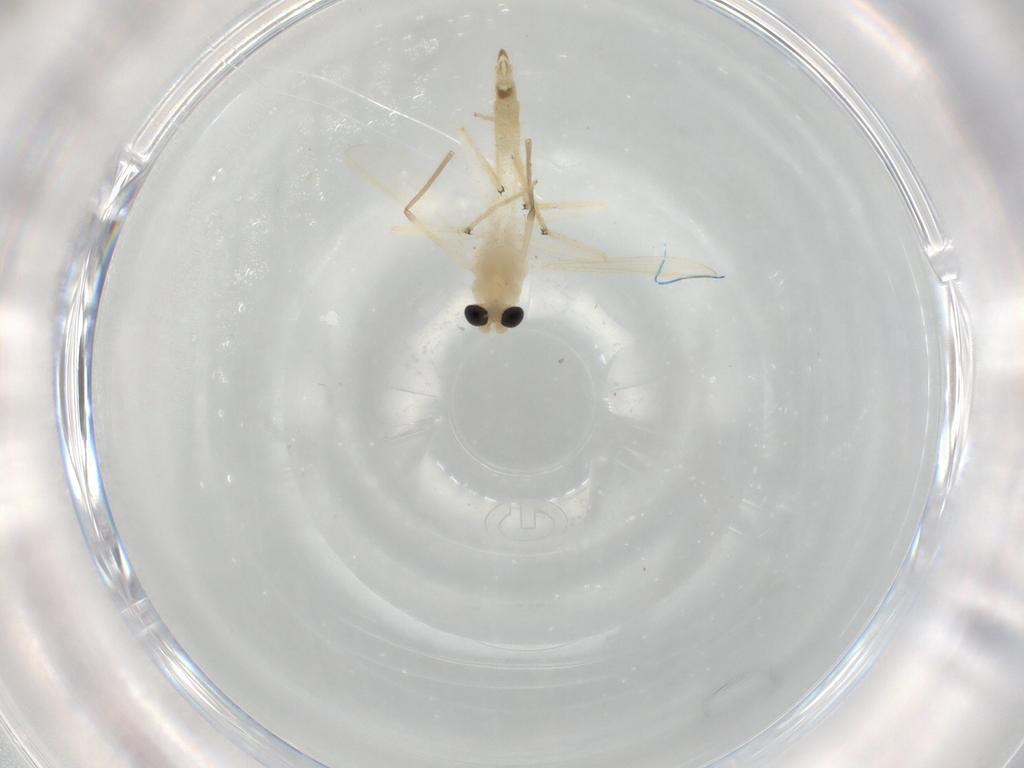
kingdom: Animalia
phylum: Arthropoda
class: Insecta
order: Diptera
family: Chironomidae
